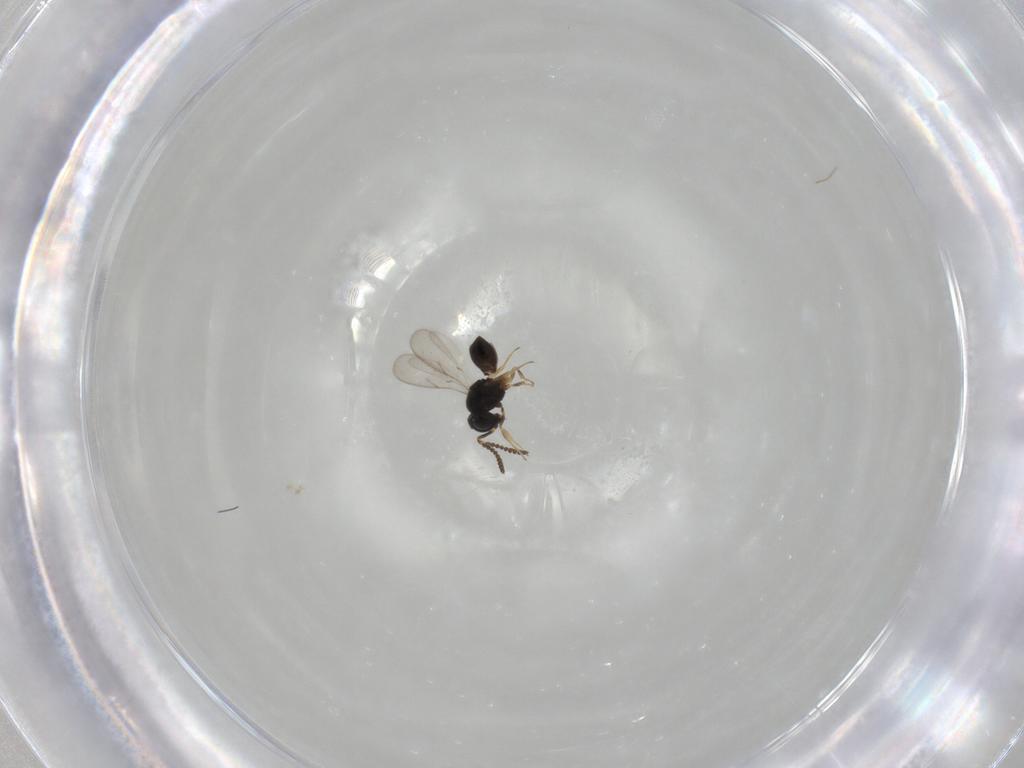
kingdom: Animalia
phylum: Arthropoda
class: Insecta
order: Hymenoptera
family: Scelionidae
